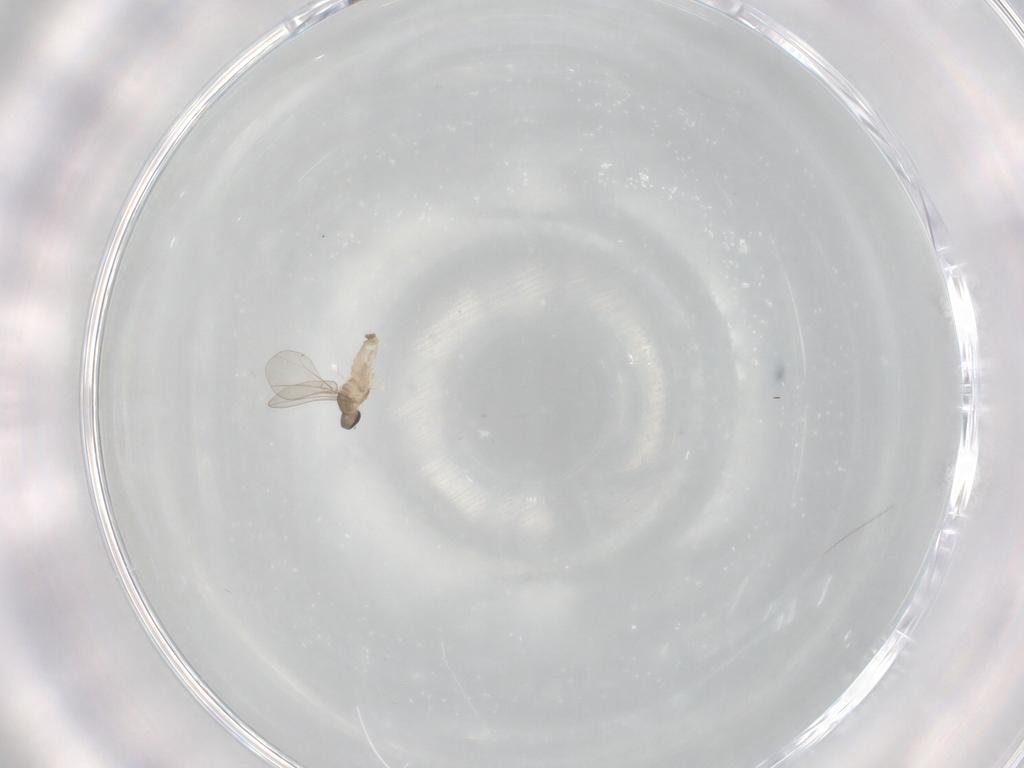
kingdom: Animalia
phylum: Arthropoda
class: Insecta
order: Diptera
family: Cecidomyiidae
